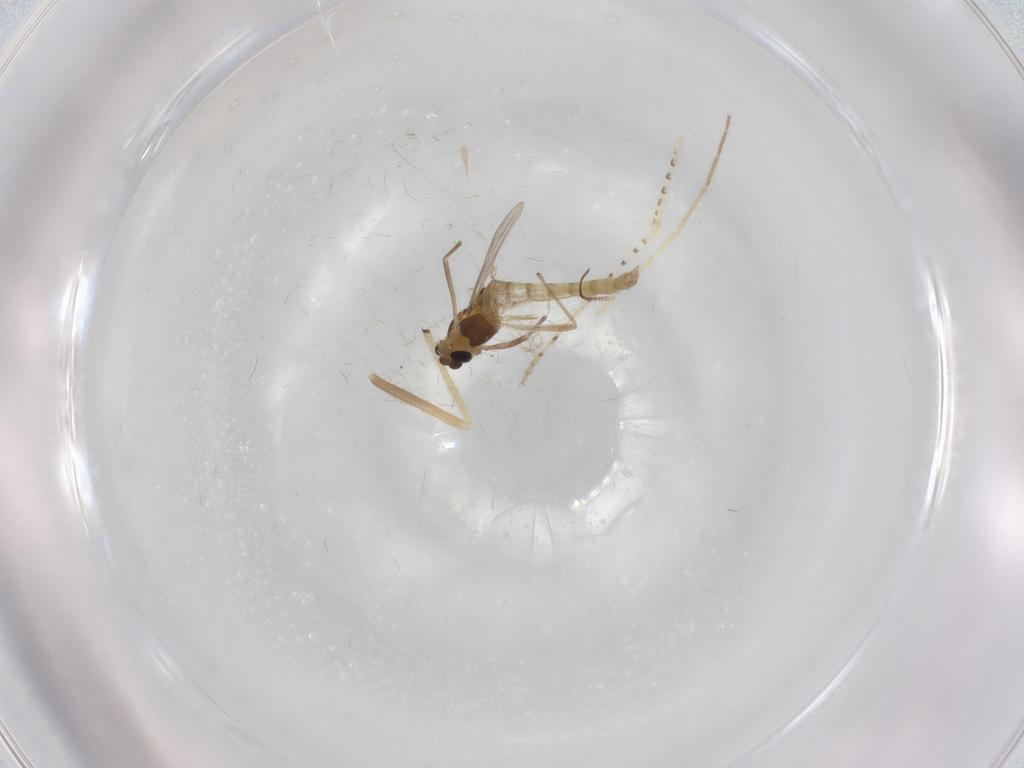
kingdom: Animalia
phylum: Arthropoda
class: Insecta
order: Diptera
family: Chironomidae
